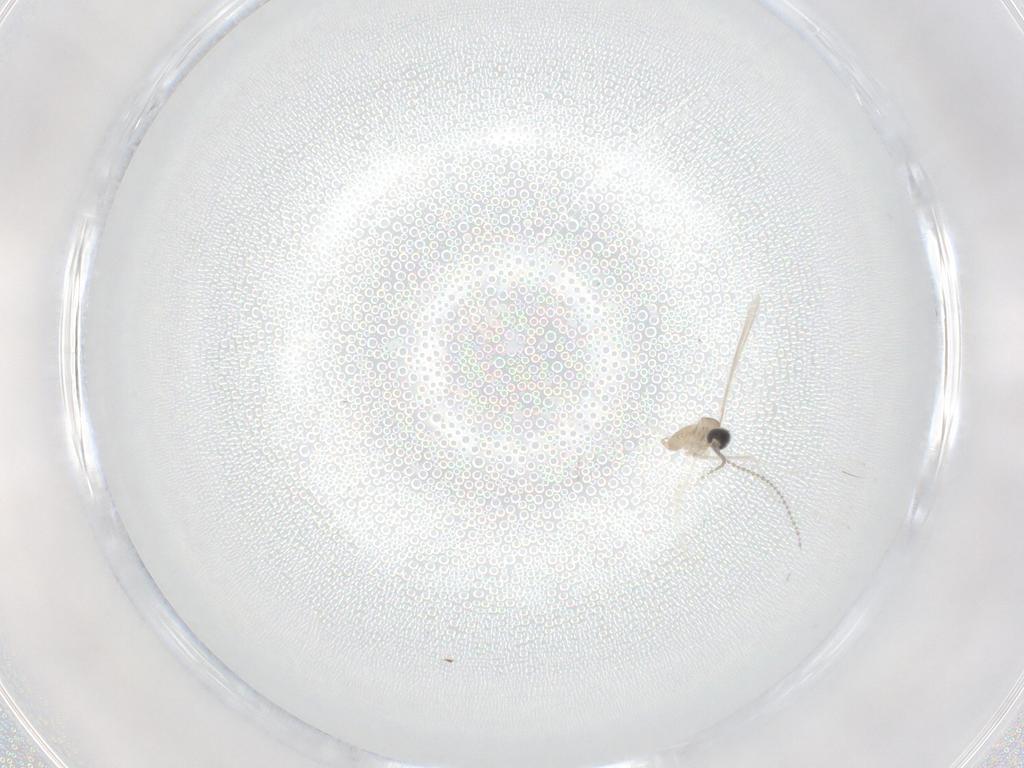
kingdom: Animalia
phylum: Arthropoda
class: Insecta
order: Diptera
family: Psychodidae
